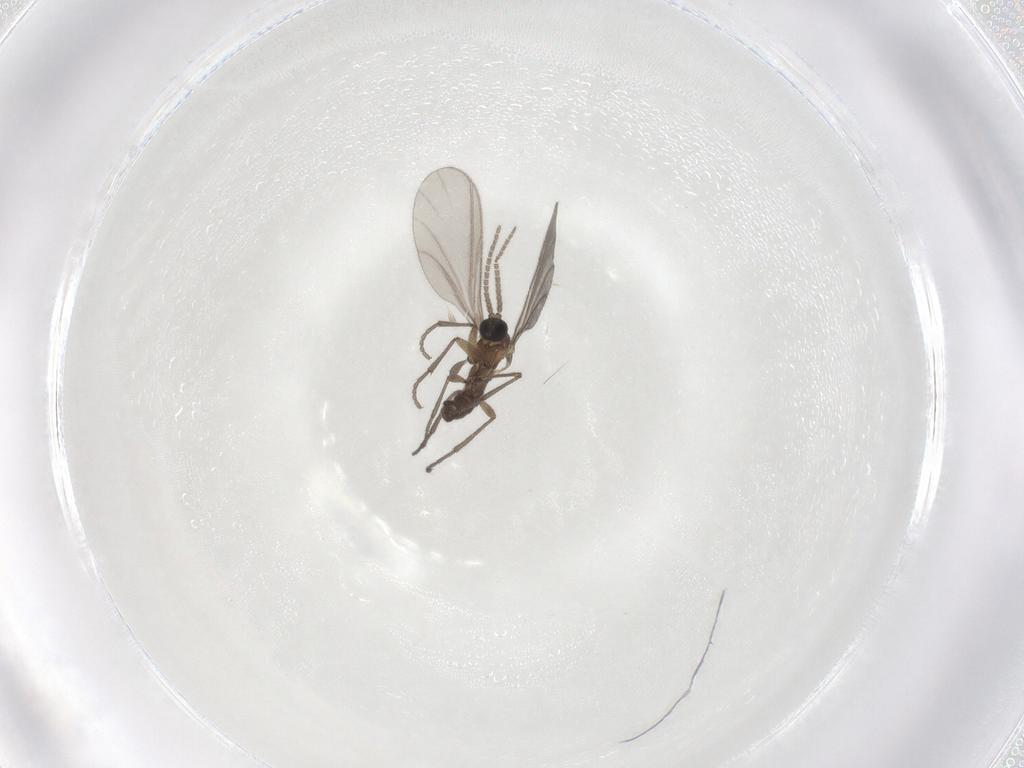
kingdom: Animalia
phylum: Arthropoda
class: Insecta
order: Diptera
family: Sciaridae
